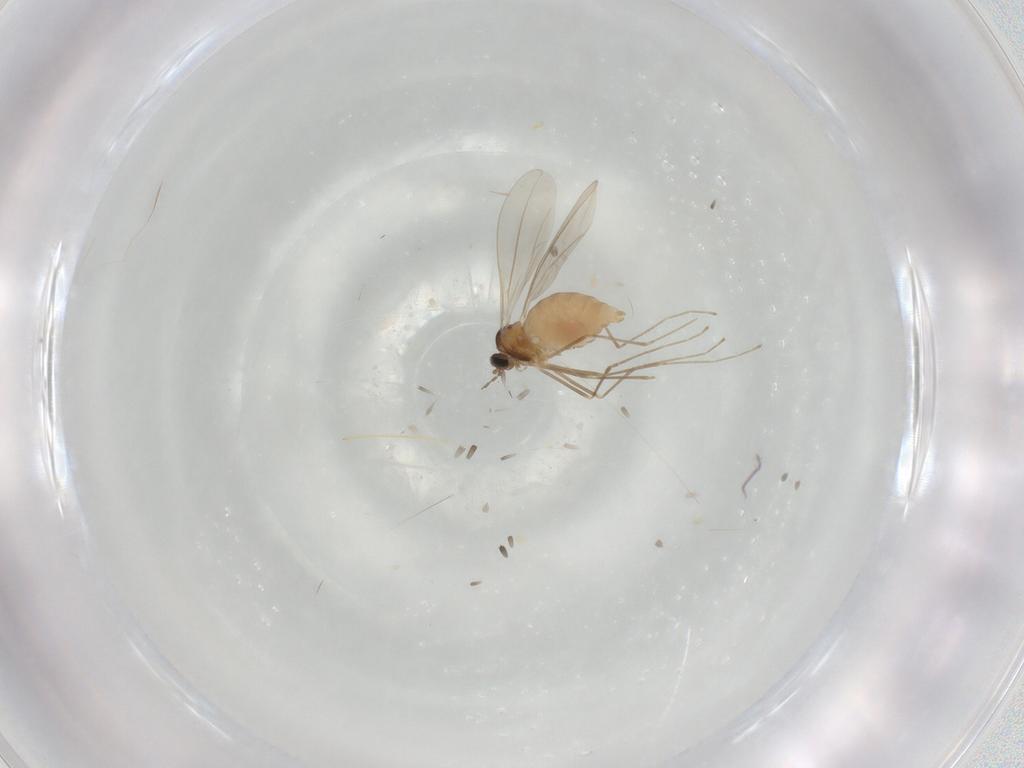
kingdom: Animalia
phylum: Arthropoda
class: Insecta
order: Diptera
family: Cecidomyiidae
